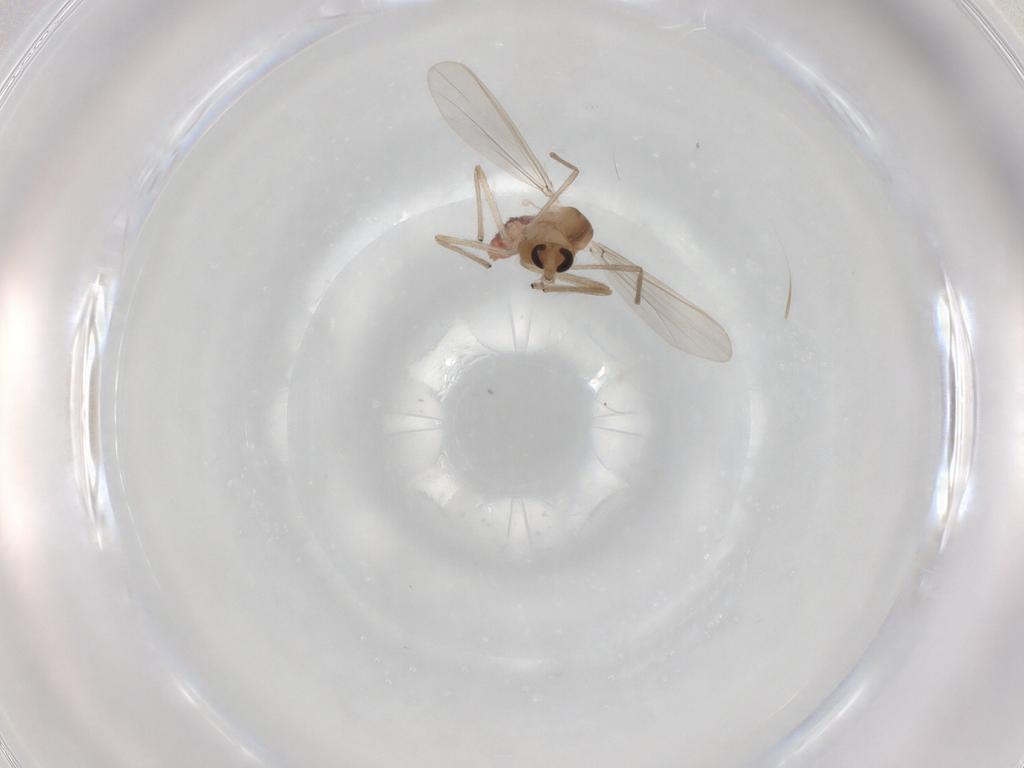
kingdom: Animalia
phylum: Arthropoda
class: Insecta
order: Diptera
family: Chironomidae
